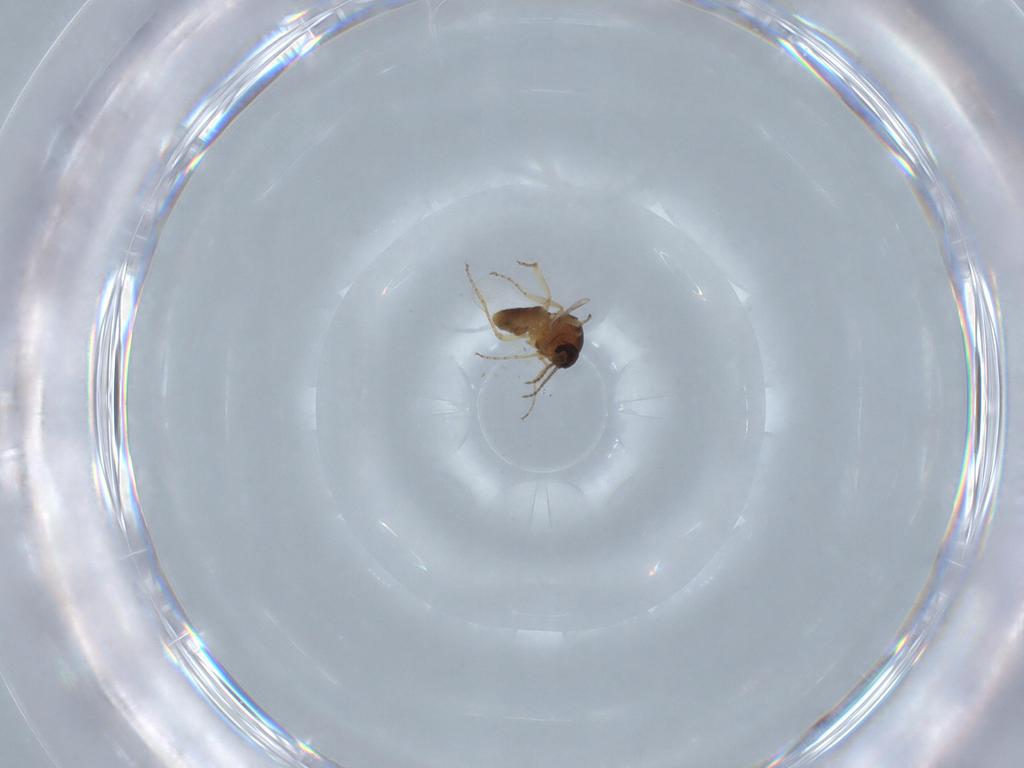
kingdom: Animalia
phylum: Arthropoda
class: Insecta
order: Diptera
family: Ceratopogonidae
